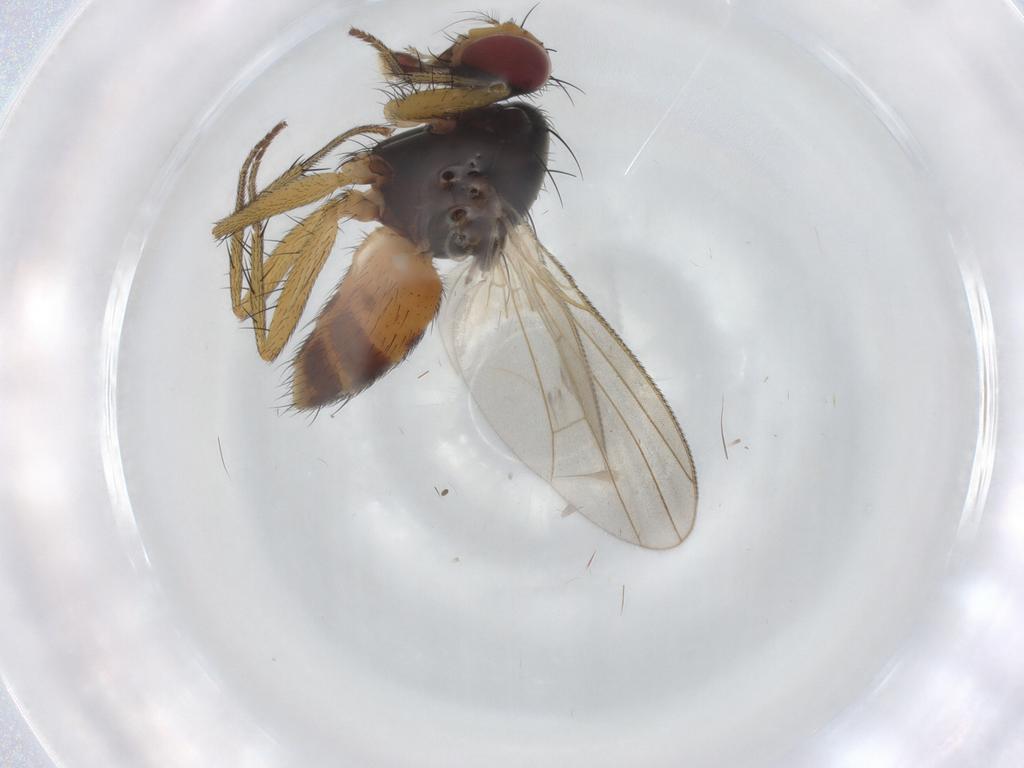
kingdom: Animalia
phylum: Arthropoda
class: Insecta
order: Diptera
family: Muscidae
